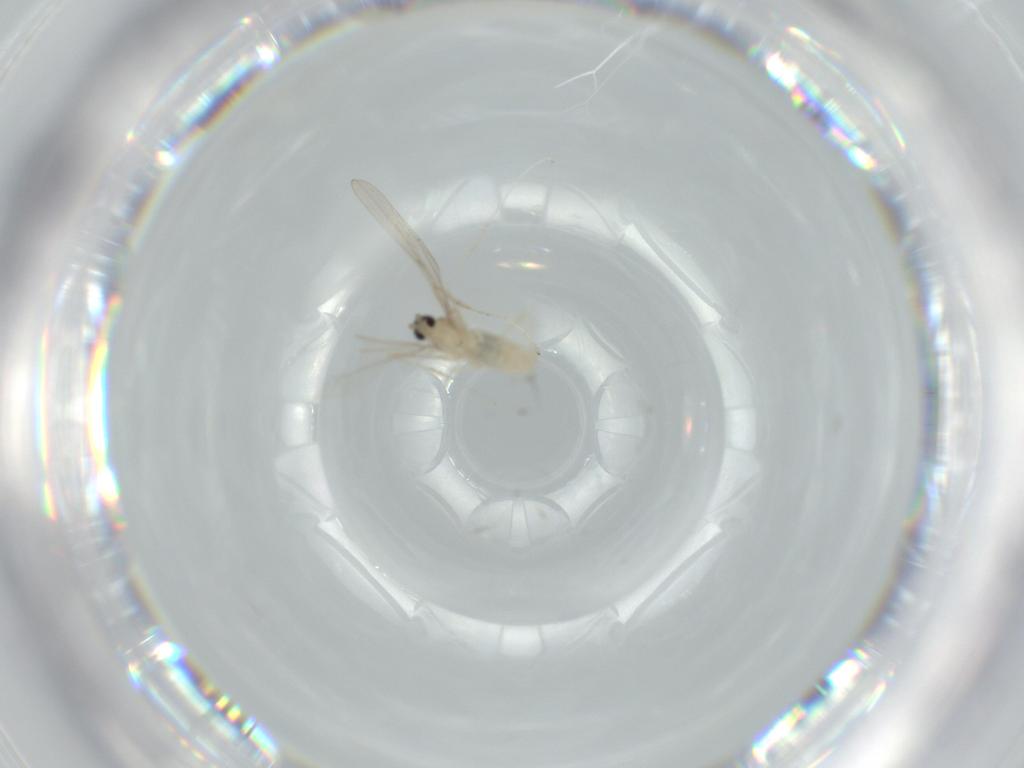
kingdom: Animalia
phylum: Arthropoda
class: Insecta
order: Diptera
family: Cecidomyiidae
